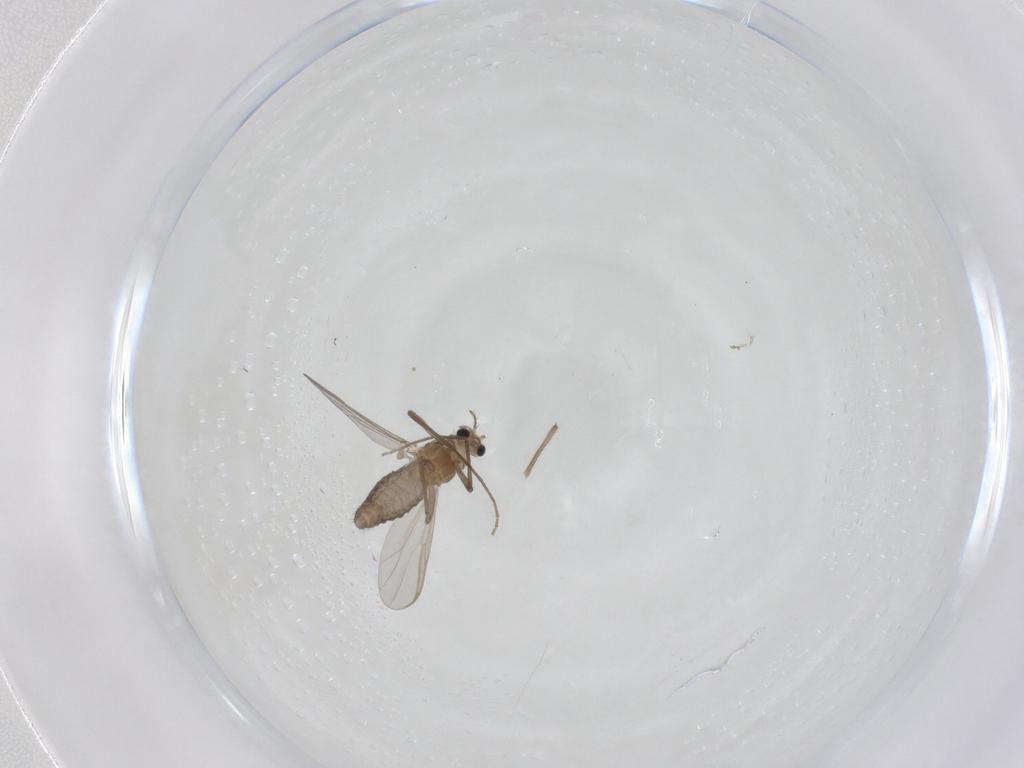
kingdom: Animalia
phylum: Arthropoda
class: Insecta
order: Diptera
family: Chironomidae
